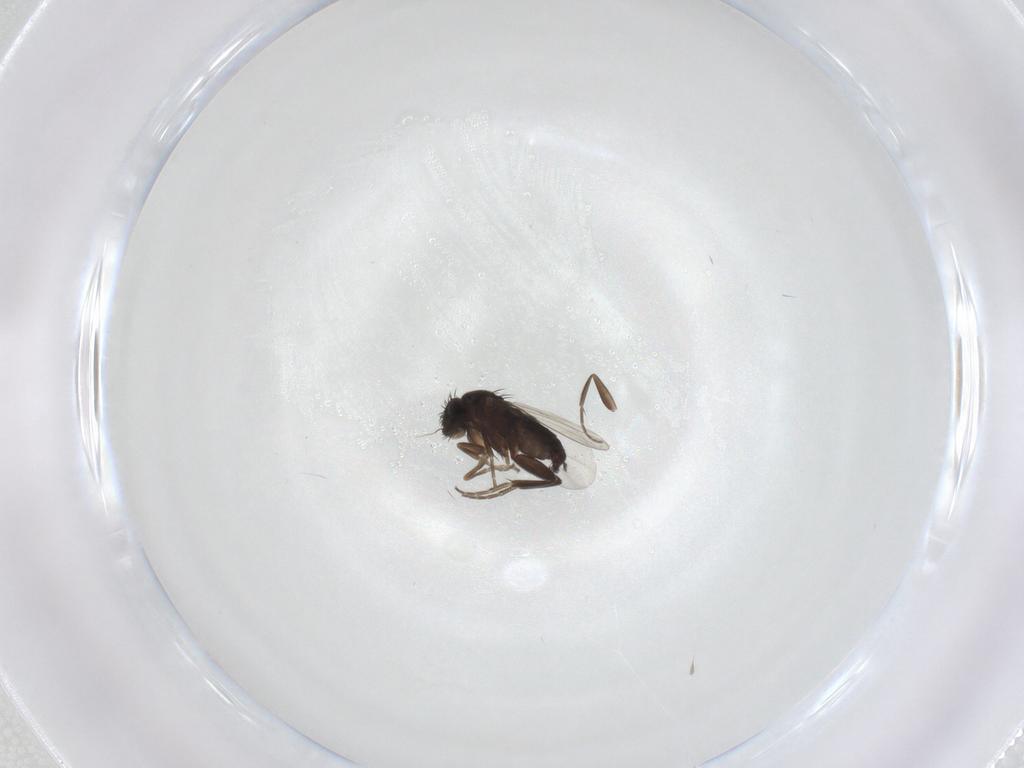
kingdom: Animalia
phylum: Arthropoda
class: Insecta
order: Diptera
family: Phoridae
